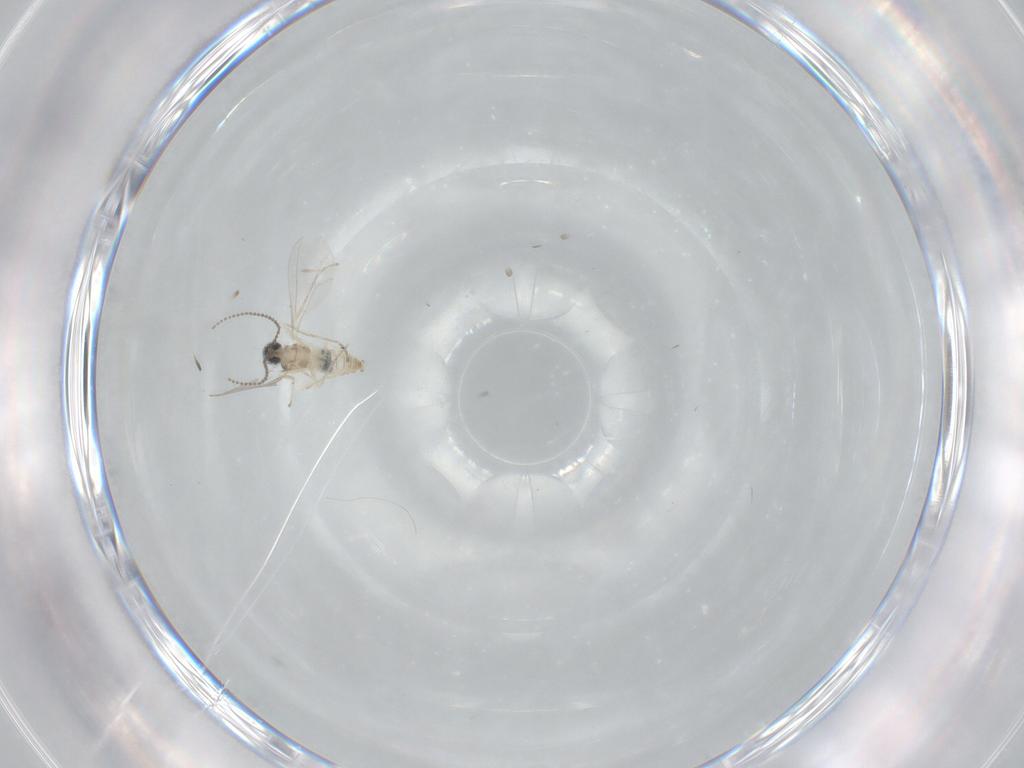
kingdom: Animalia
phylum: Arthropoda
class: Insecta
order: Diptera
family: Cecidomyiidae
